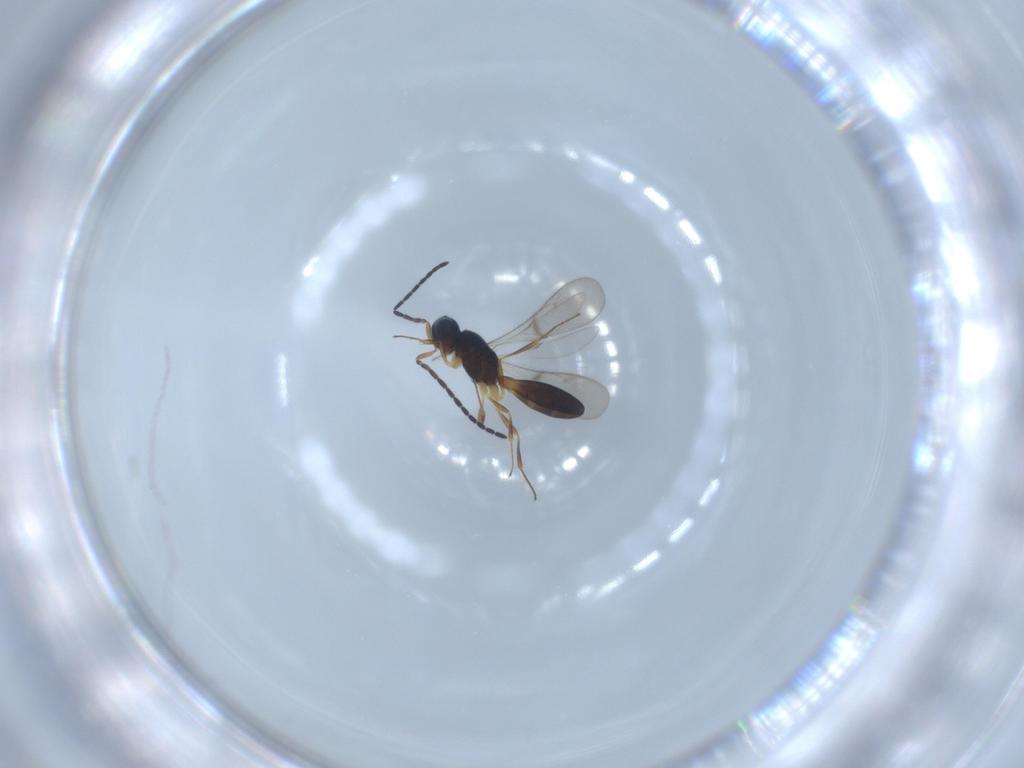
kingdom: Animalia
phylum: Arthropoda
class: Insecta
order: Hymenoptera
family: Scelionidae
